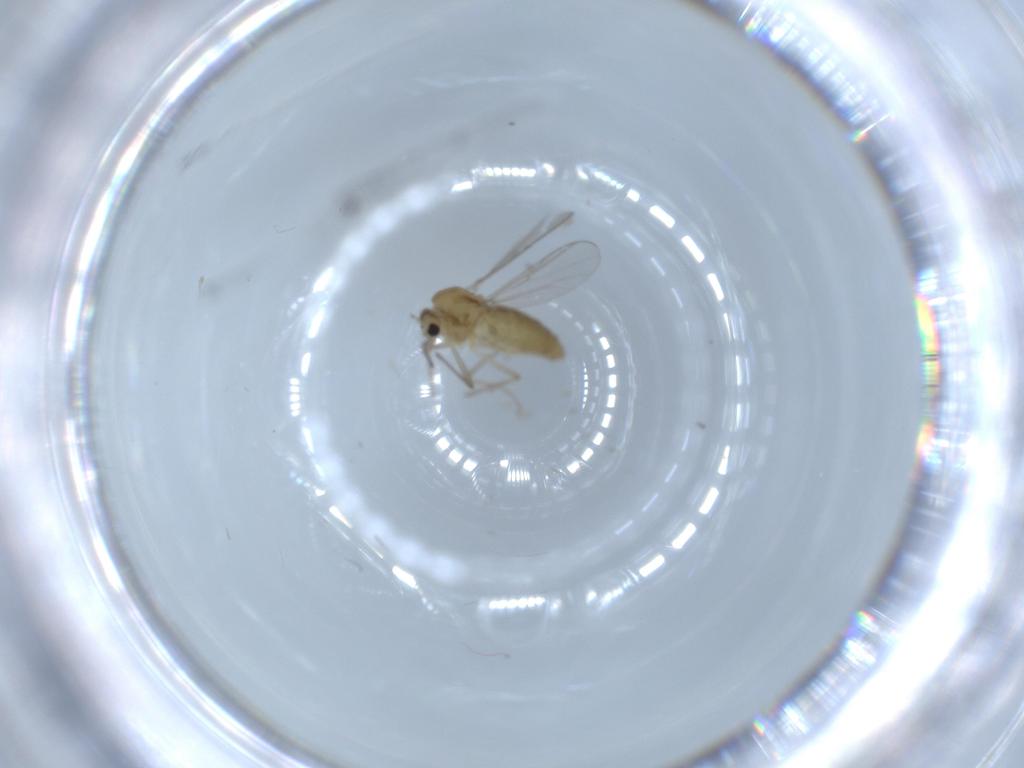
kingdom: Animalia
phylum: Arthropoda
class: Insecta
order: Diptera
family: Chironomidae
